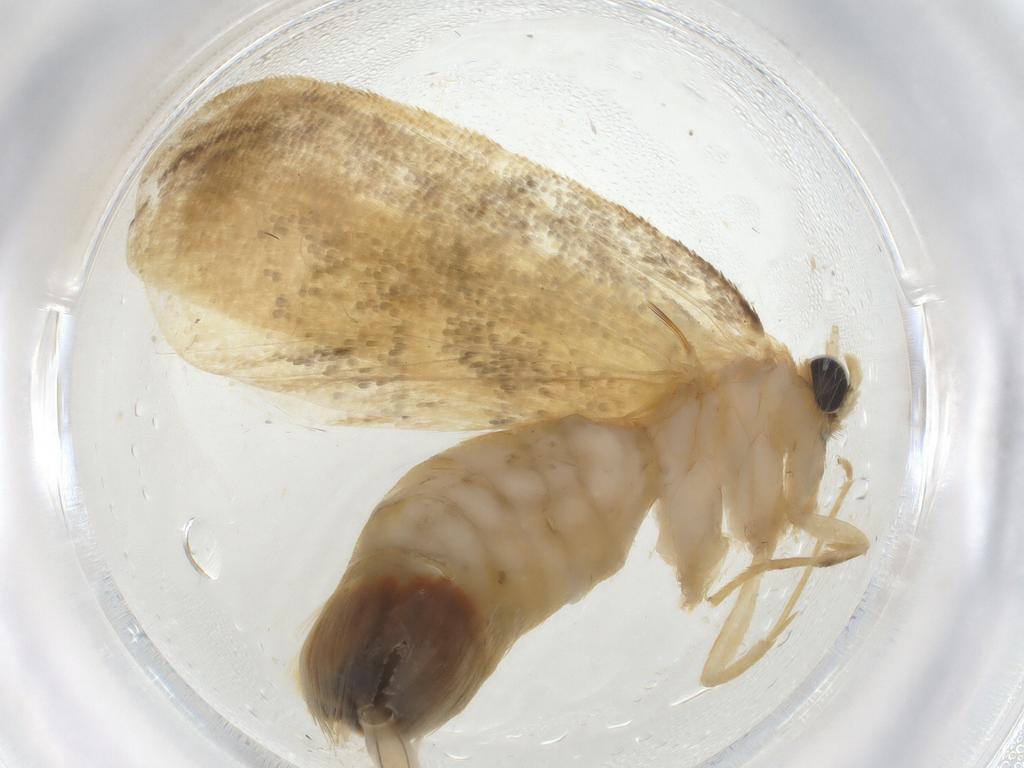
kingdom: Animalia
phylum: Arthropoda
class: Insecta
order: Lepidoptera
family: Psychidae
